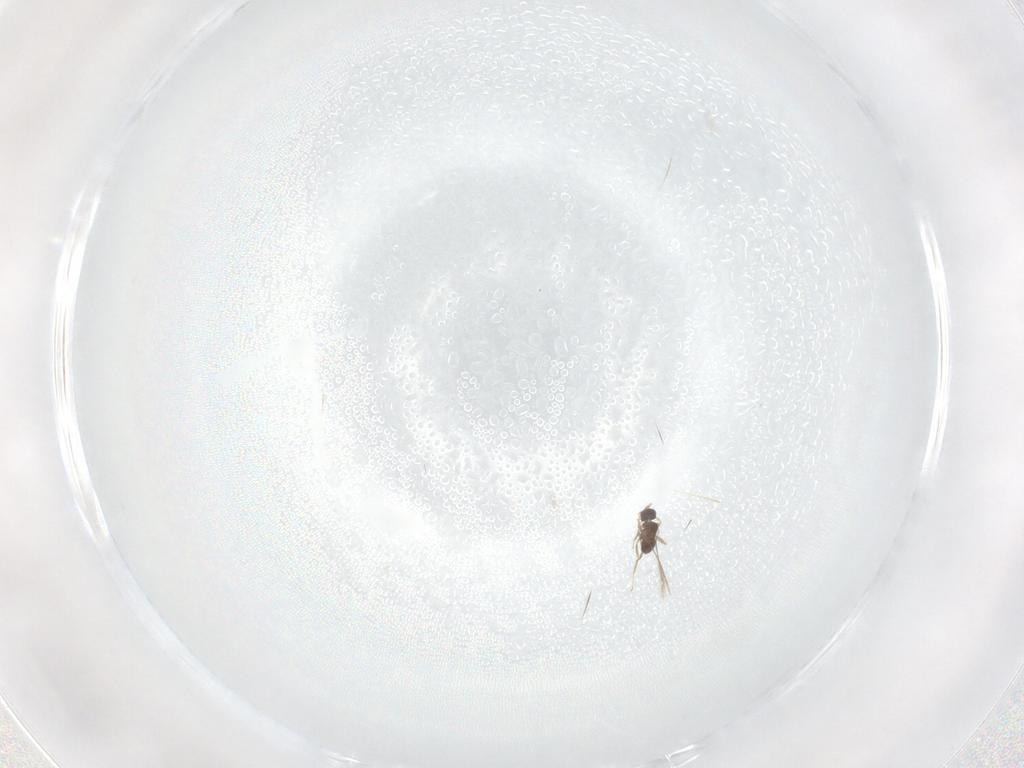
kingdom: Animalia
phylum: Arthropoda
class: Insecta
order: Hymenoptera
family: Mymaridae
